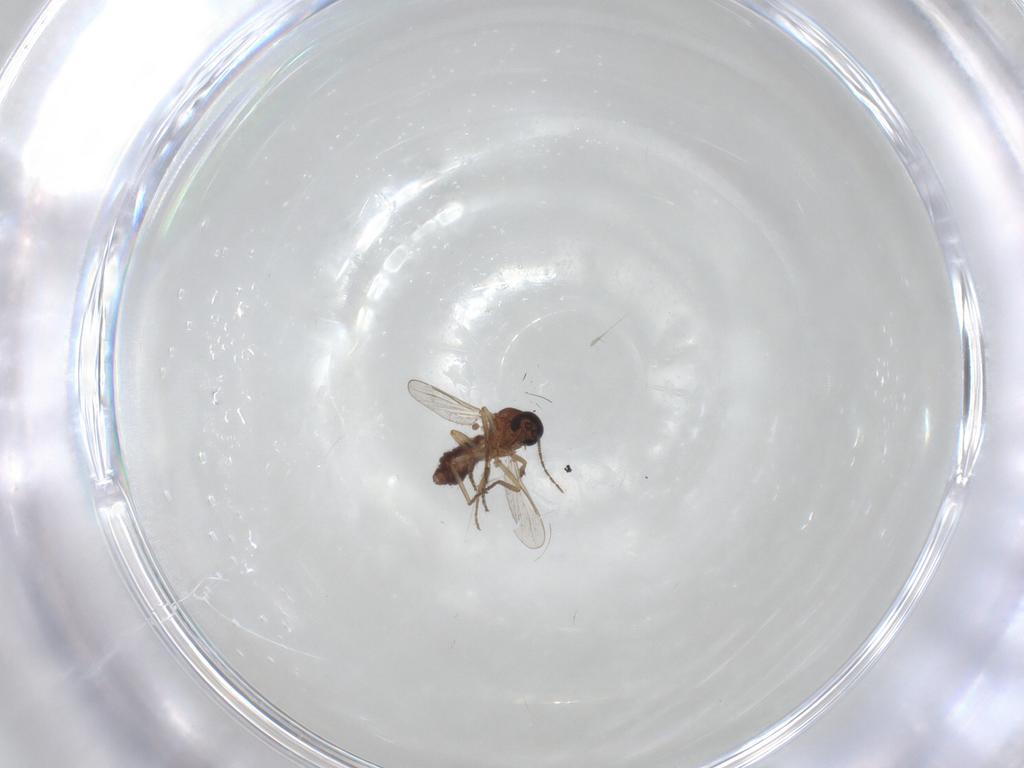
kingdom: Animalia
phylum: Arthropoda
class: Insecta
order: Diptera
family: Ceratopogonidae
